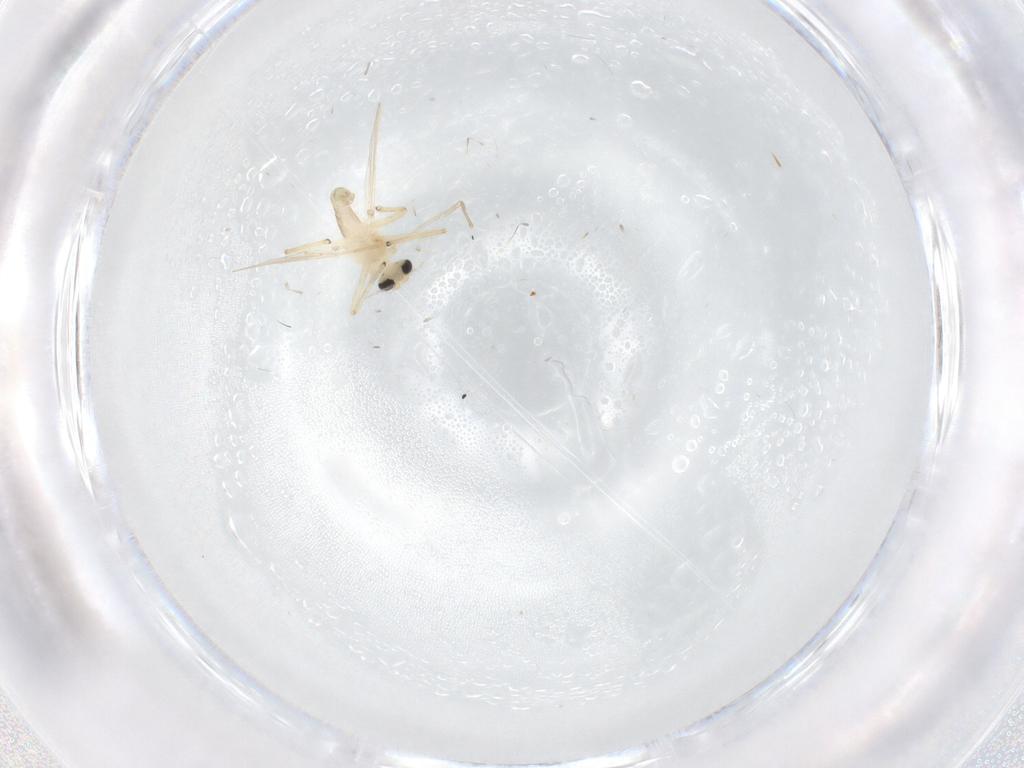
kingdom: Animalia
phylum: Arthropoda
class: Insecta
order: Diptera
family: Chironomidae
